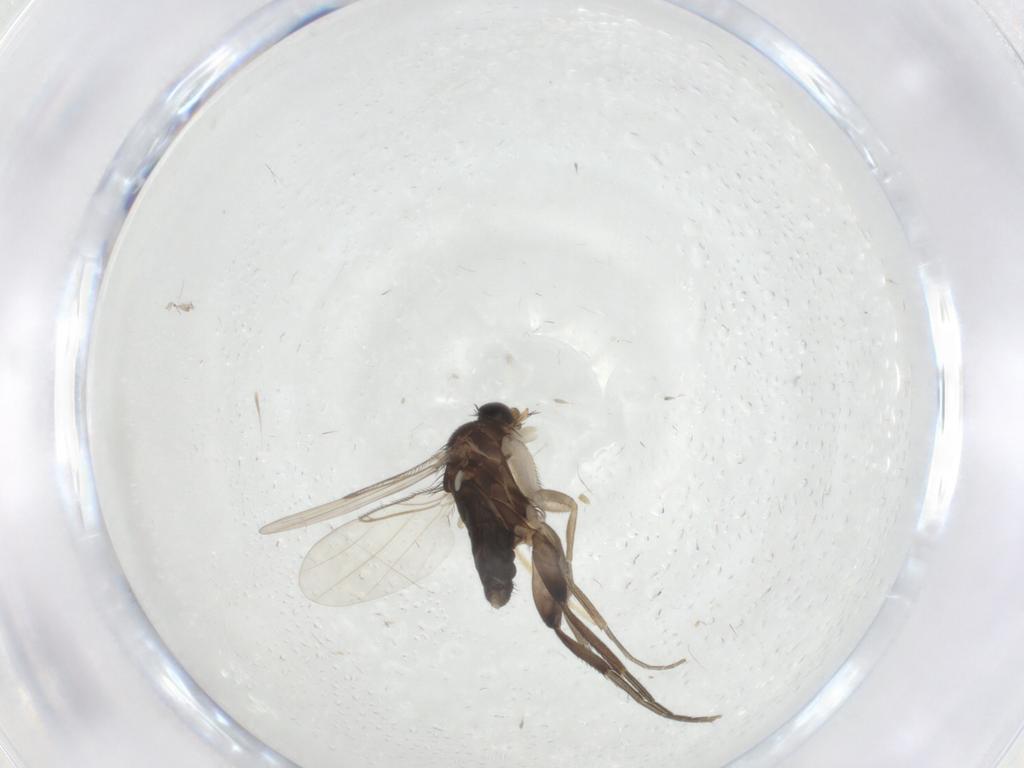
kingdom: Animalia
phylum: Arthropoda
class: Insecta
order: Diptera
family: Phoridae
